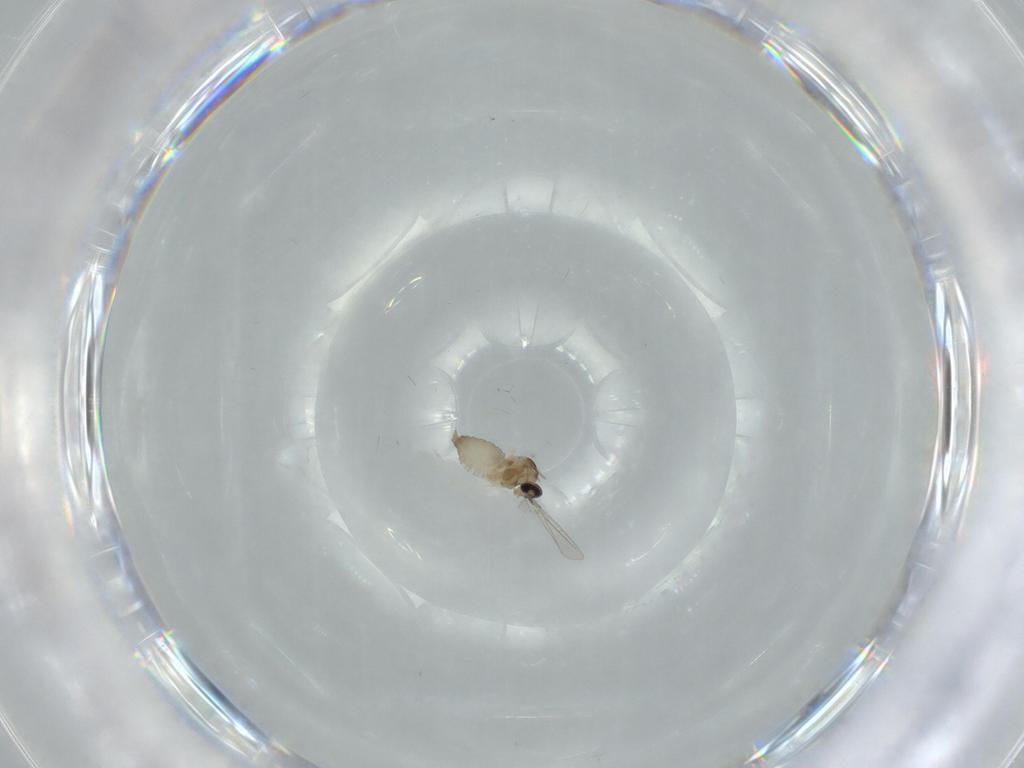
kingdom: Animalia
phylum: Arthropoda
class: Insecta
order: Diptera
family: Cecidomyiidae
